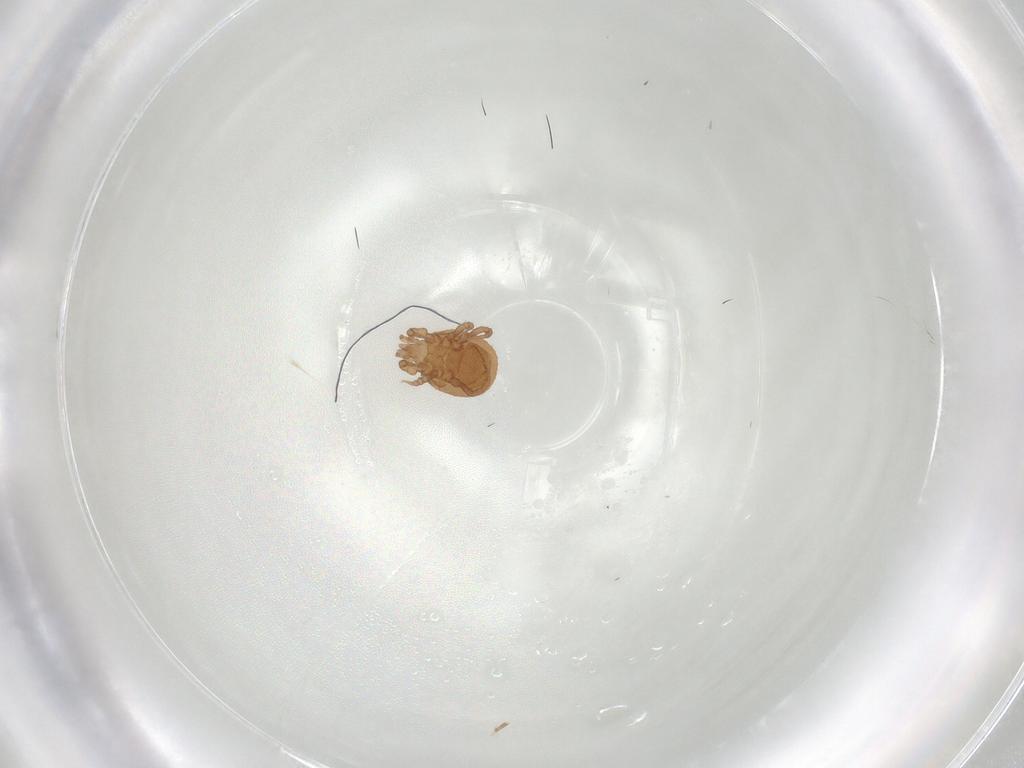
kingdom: Animalia
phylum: Arthropoda
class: Arachnida
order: Mesostigmata
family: Macrochelidae
